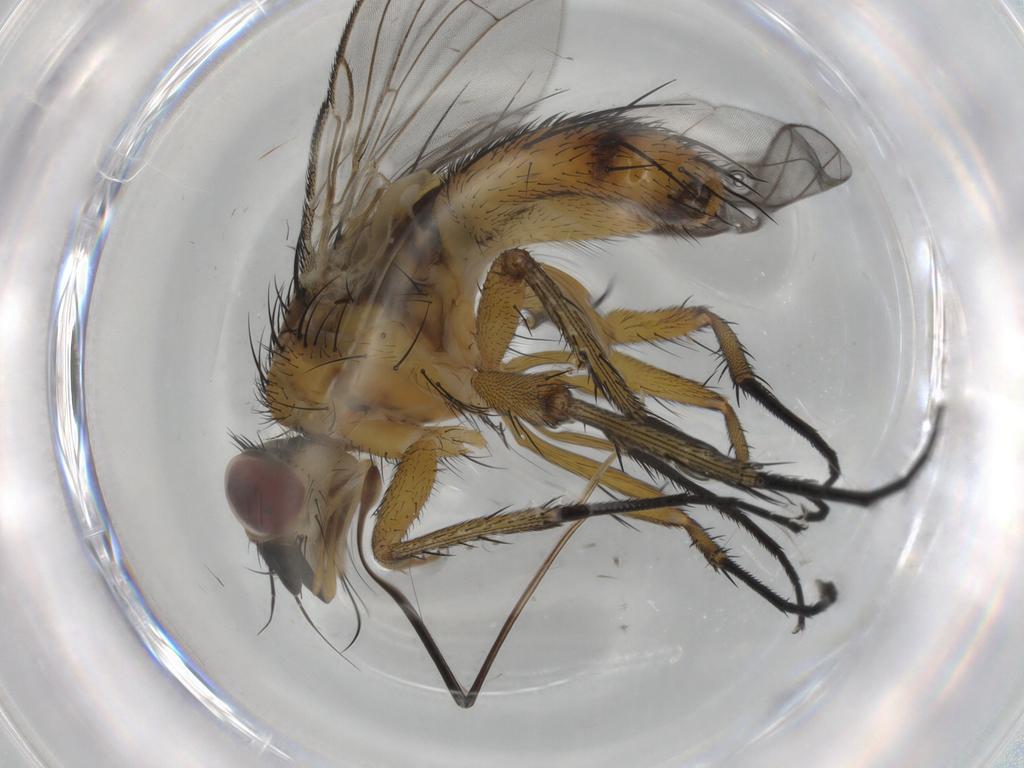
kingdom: Animalia
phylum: Arthropoda
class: Insecta
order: Diptera
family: Tachinidae
